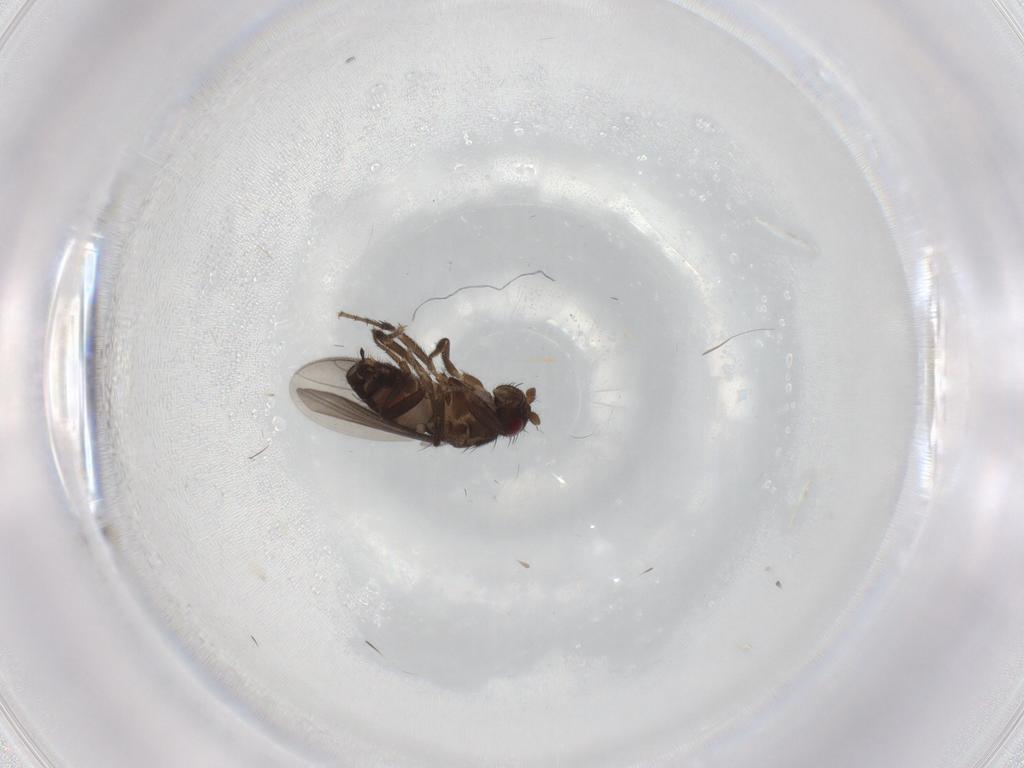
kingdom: Animalia
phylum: Arthropoda
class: Insecta
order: Diptera
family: Sphaeroceridae
